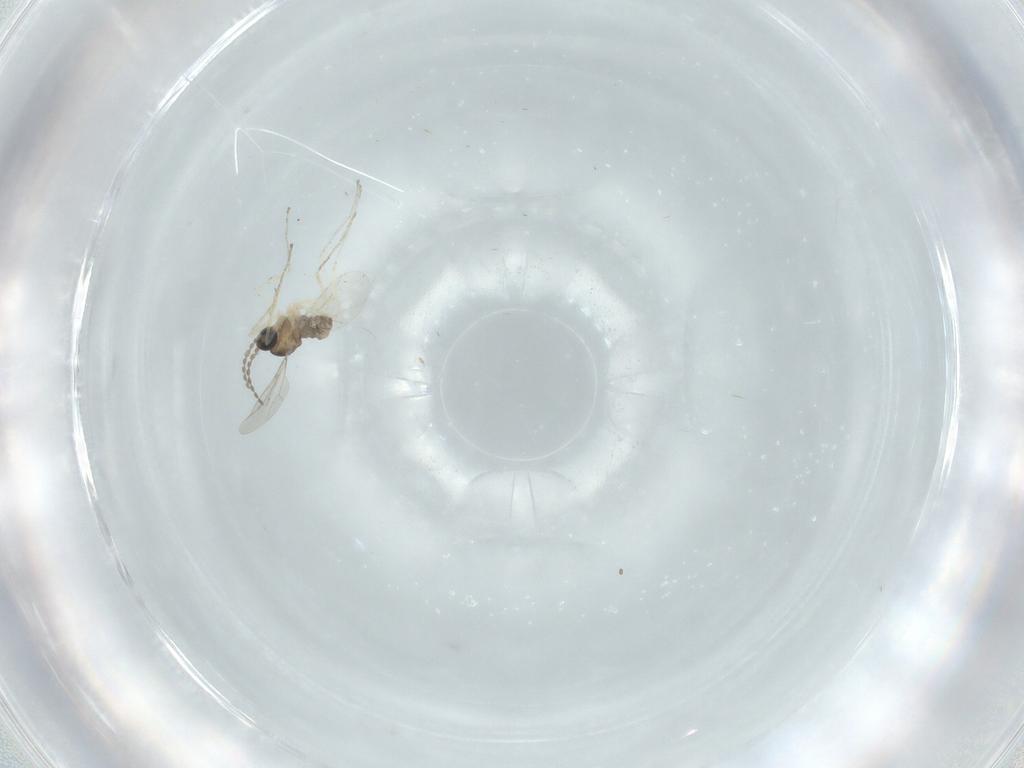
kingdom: Animalia
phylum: Arthropoda
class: Insecta
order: Diptera
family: Cecidomyiidae
